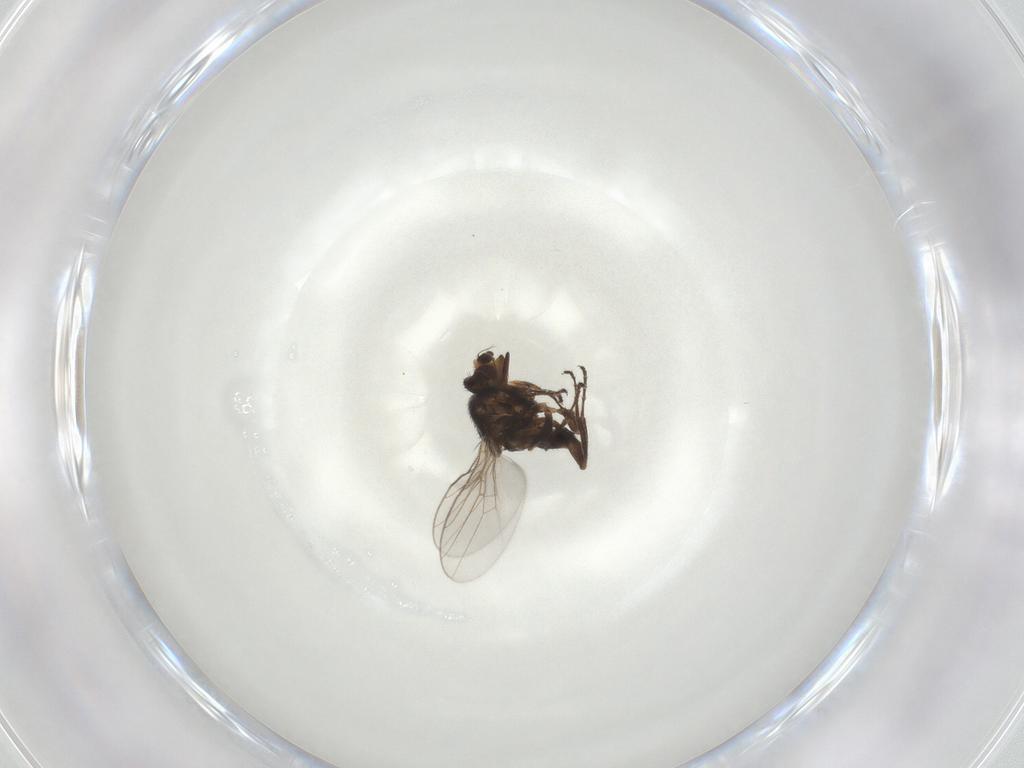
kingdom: Animalia
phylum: Arthropoda
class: Insecta
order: Diptera
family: Chloropidae
